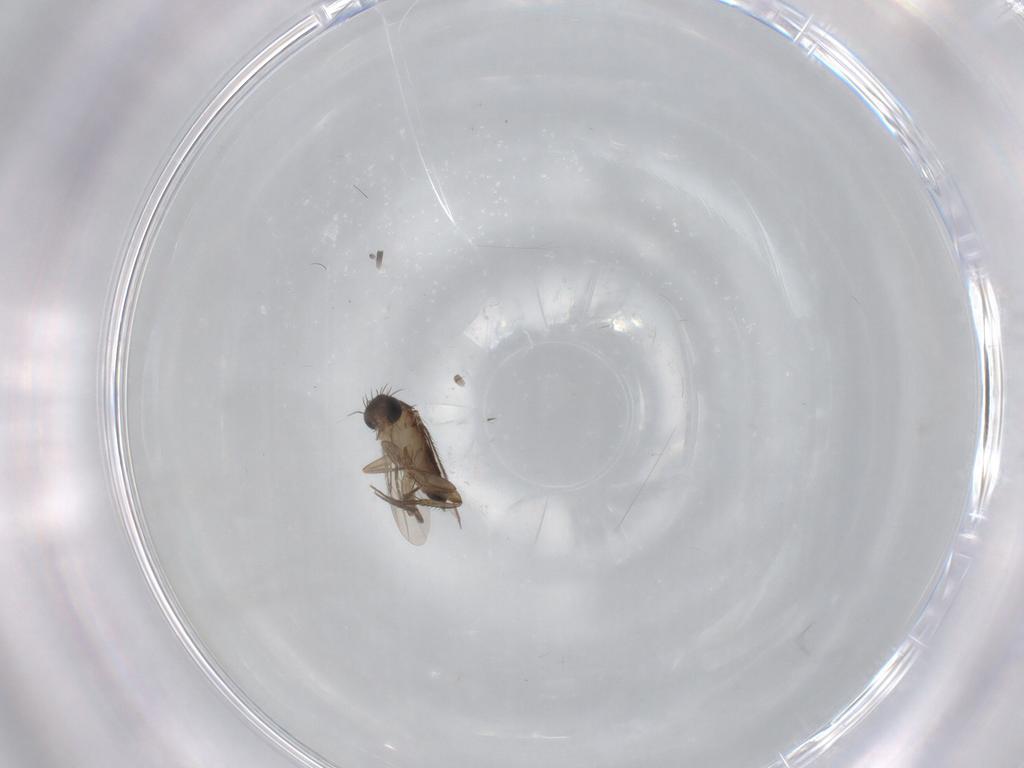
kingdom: Animalia
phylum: Arthropoda
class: Insecta
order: Diptera
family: Phoridae
